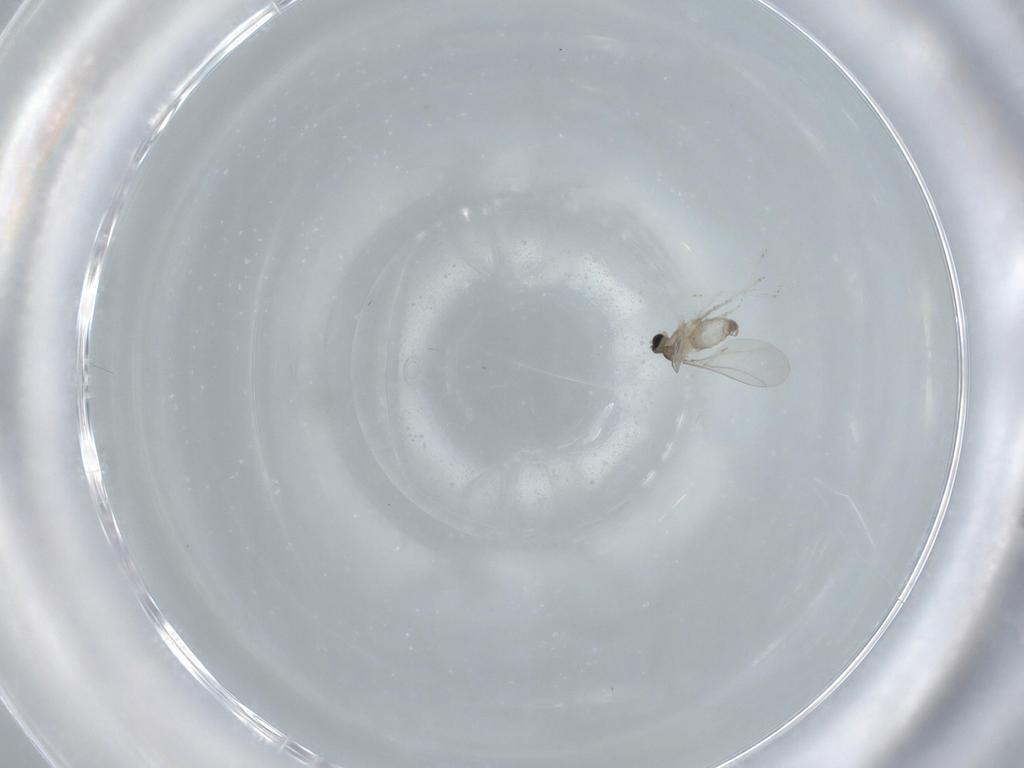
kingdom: Animalia
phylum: Arthropoda
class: Insecta
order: Diptera
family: Cecidomyiidae
